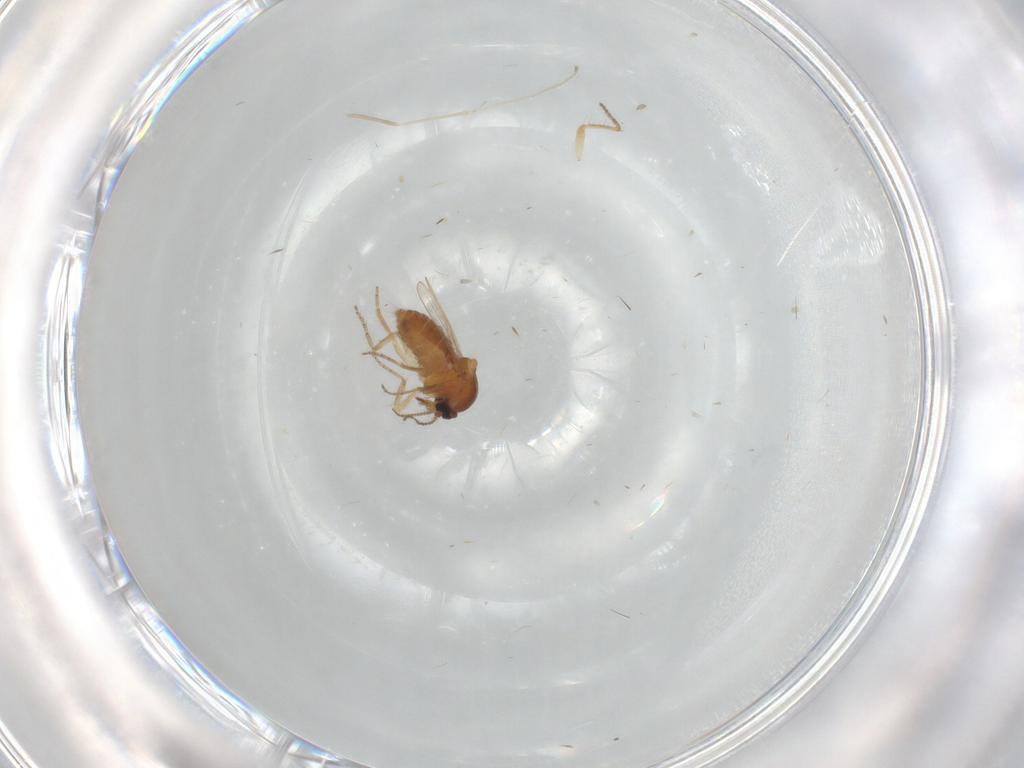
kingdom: Animalia
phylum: Arthropoda
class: Insecta
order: Diptera
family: Ceratopogonidae
